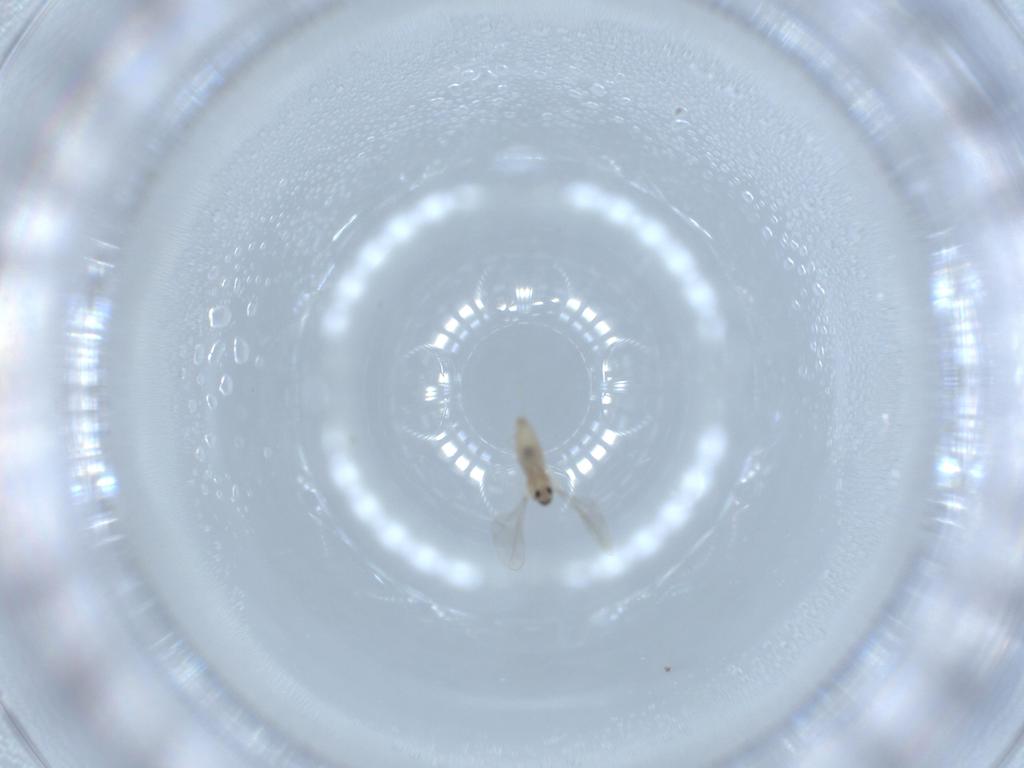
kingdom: Animalia
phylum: Arthropoda
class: Insecta
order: Diptera
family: Cecidomyiidae
